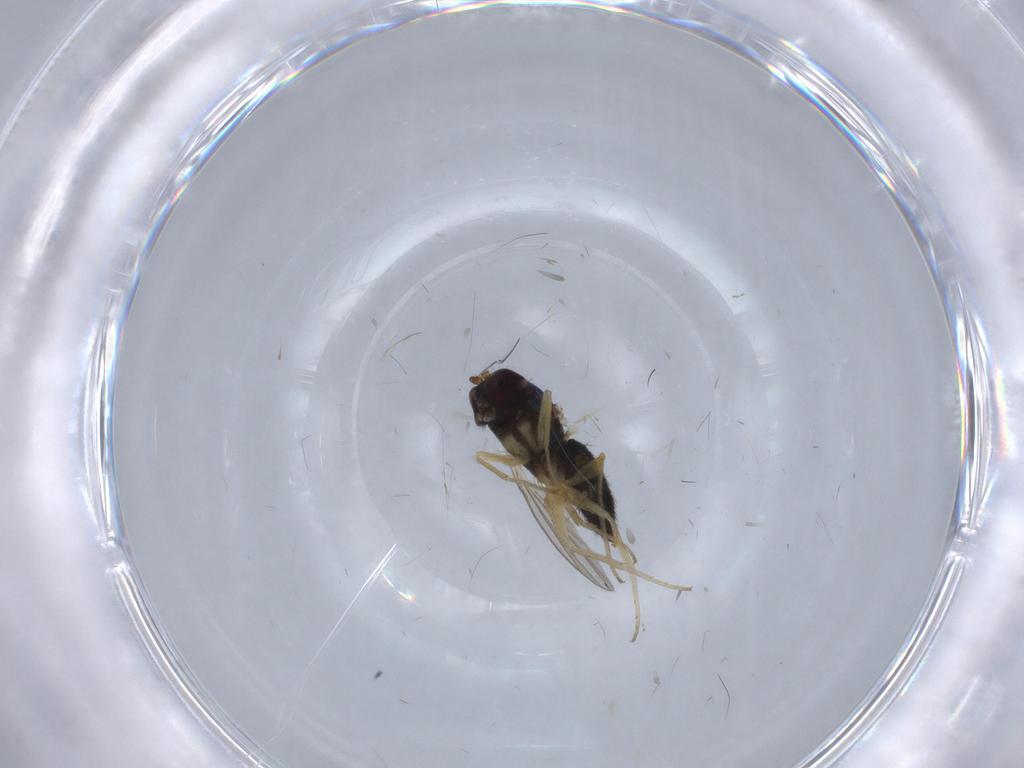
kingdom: Animalia
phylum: Arthropoda
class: Insecta
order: Diptera
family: Dolichopodidae
